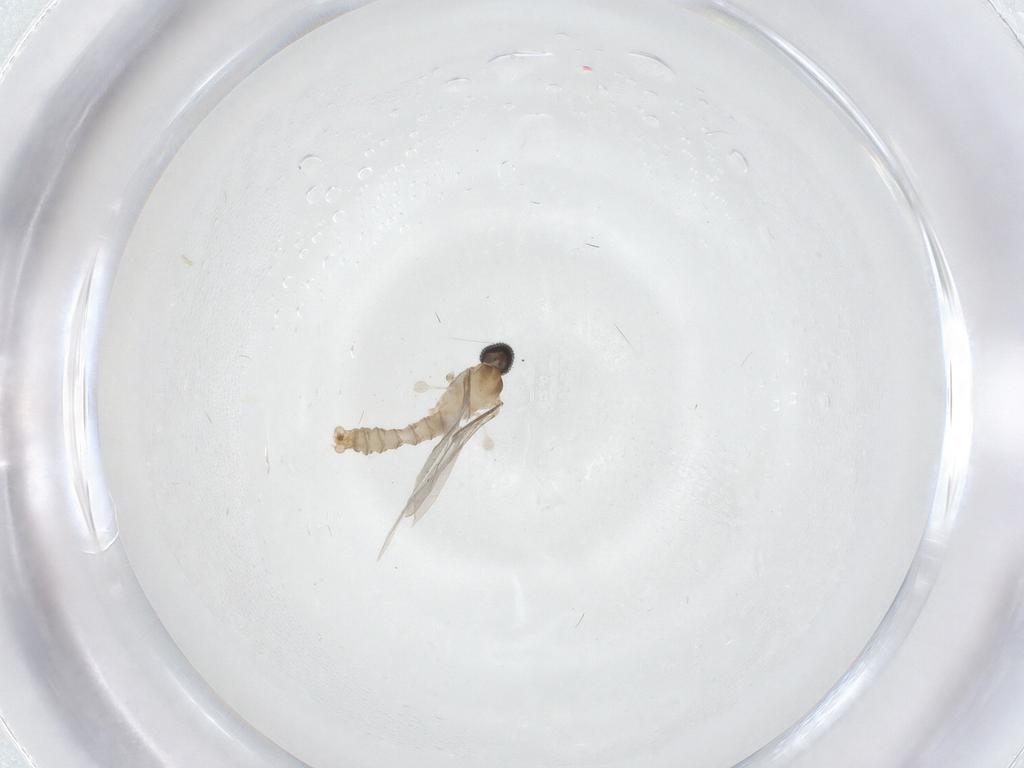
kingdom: Animalia
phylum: Arthropoda
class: Insecta
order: Diptera
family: Cecidomyiidae
